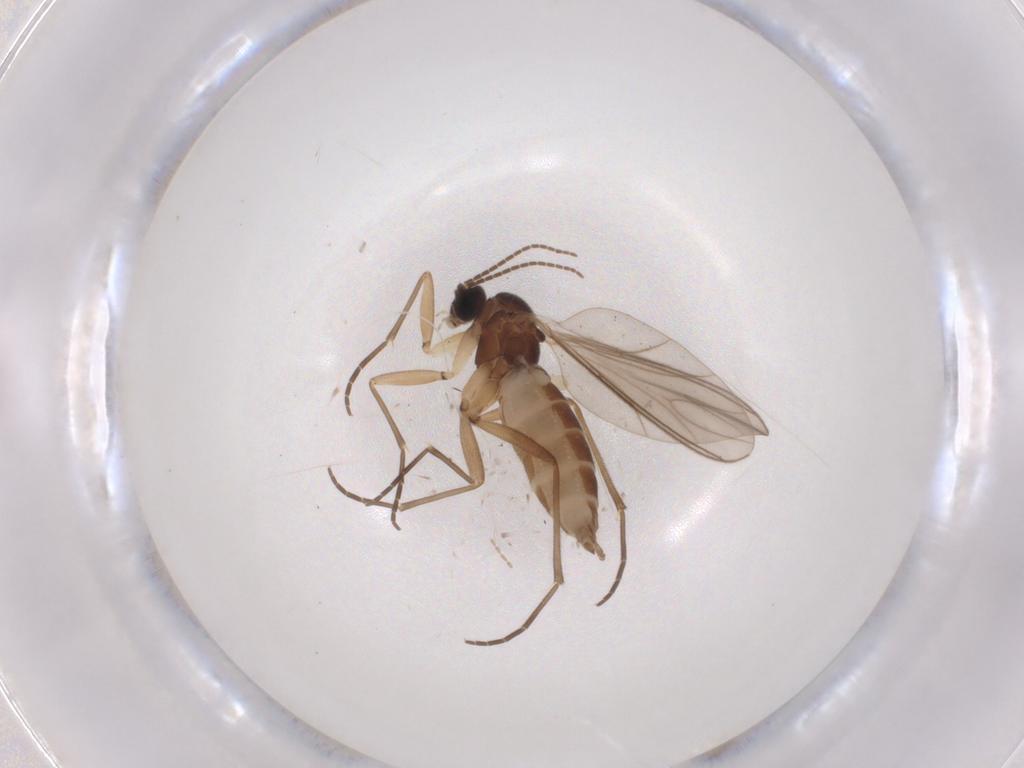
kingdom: Animalia
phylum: Arthropoda
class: Insecta
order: Diptera
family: Sciaridae
